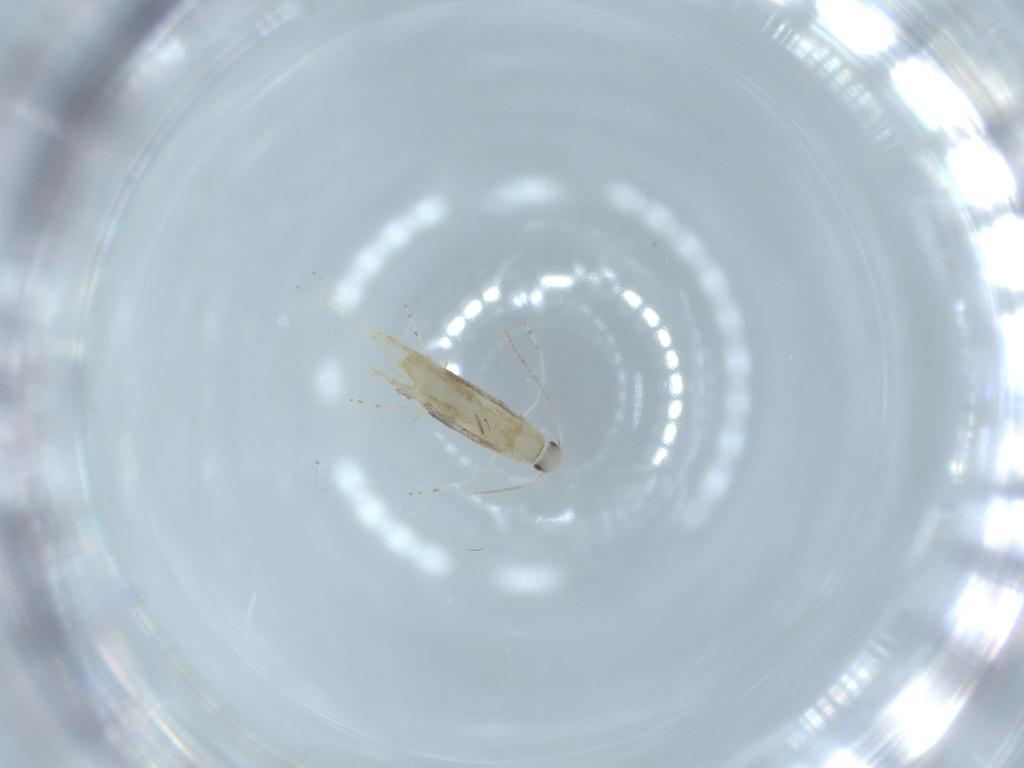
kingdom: Animalia
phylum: Arthropoda
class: Insecta
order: Lepidoptera
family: Gracillariidae
